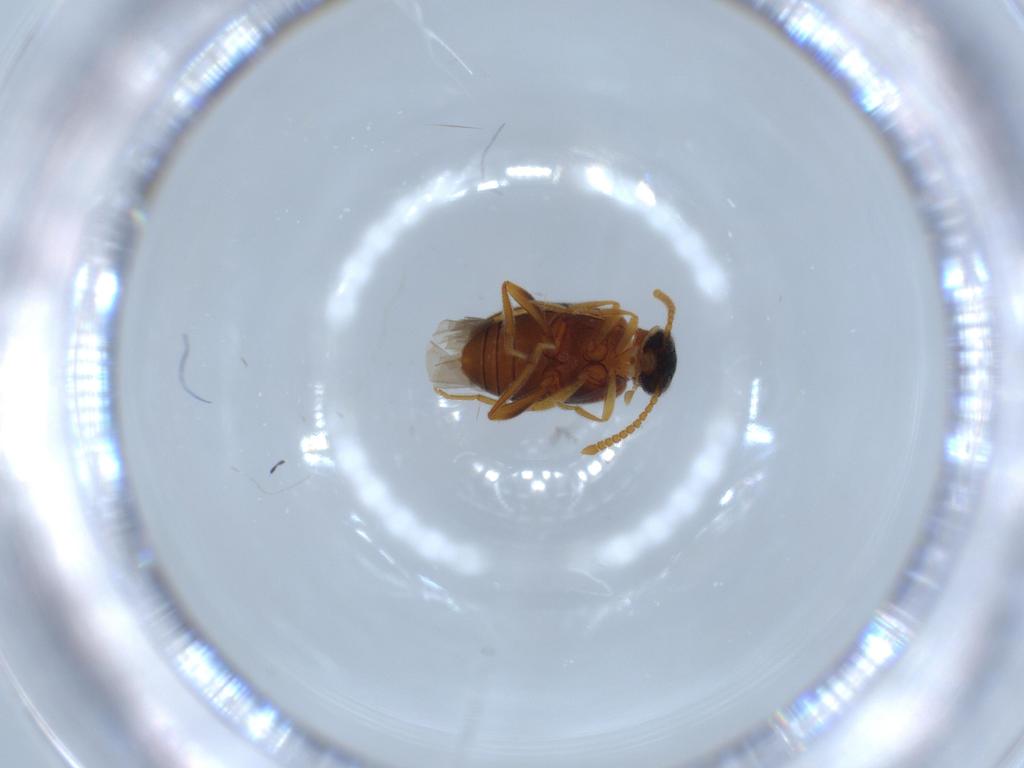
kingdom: Animalia
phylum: Arthropoda
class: Insecta
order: Coleoptera
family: Aderidae
